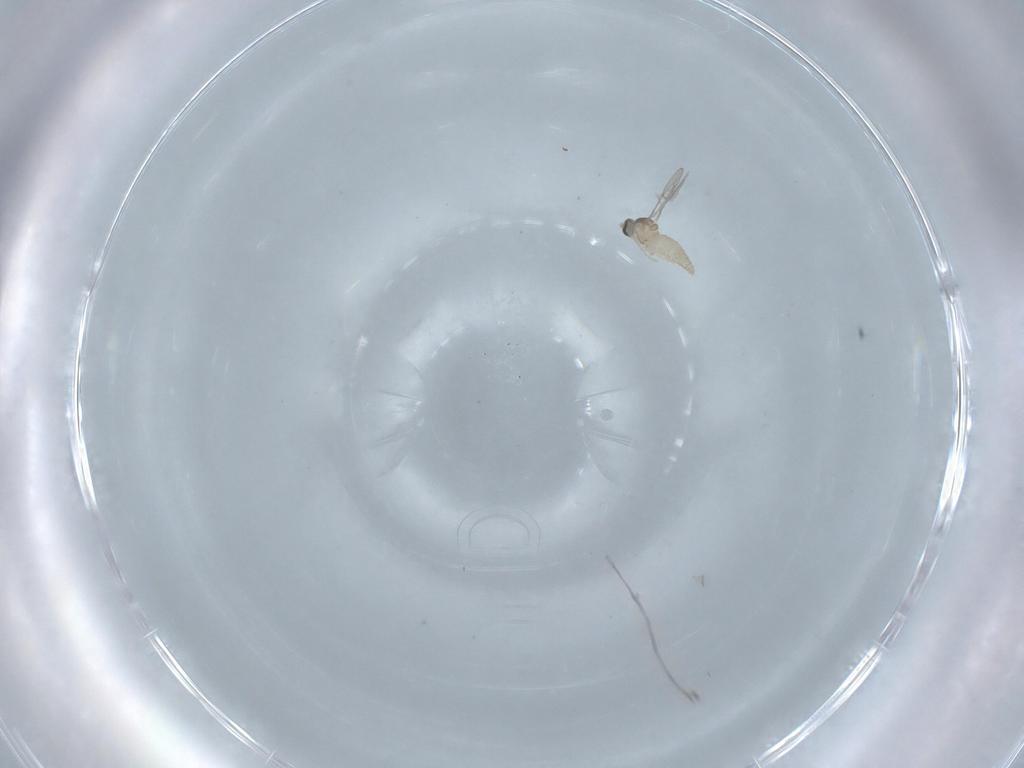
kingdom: Animalia
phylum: Arthropoda
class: Insecta
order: Diptera
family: Cecidomyiidae
